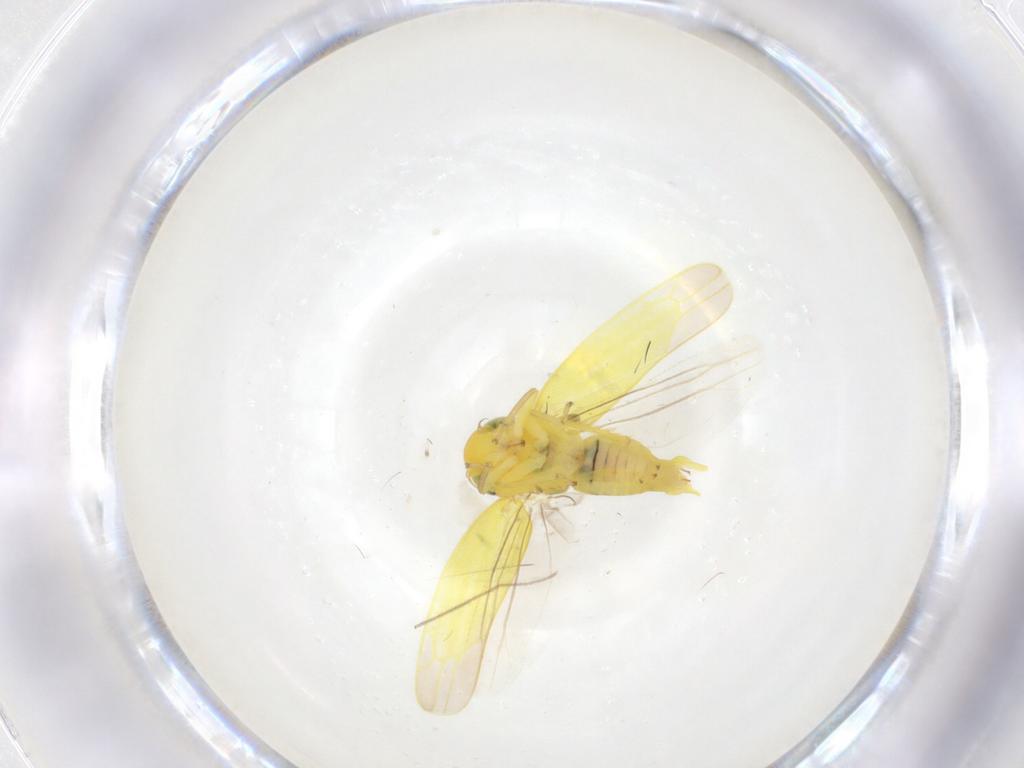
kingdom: Animalia
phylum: Arthropoda
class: Insecta
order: Hemiptera
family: Cicadellidae
